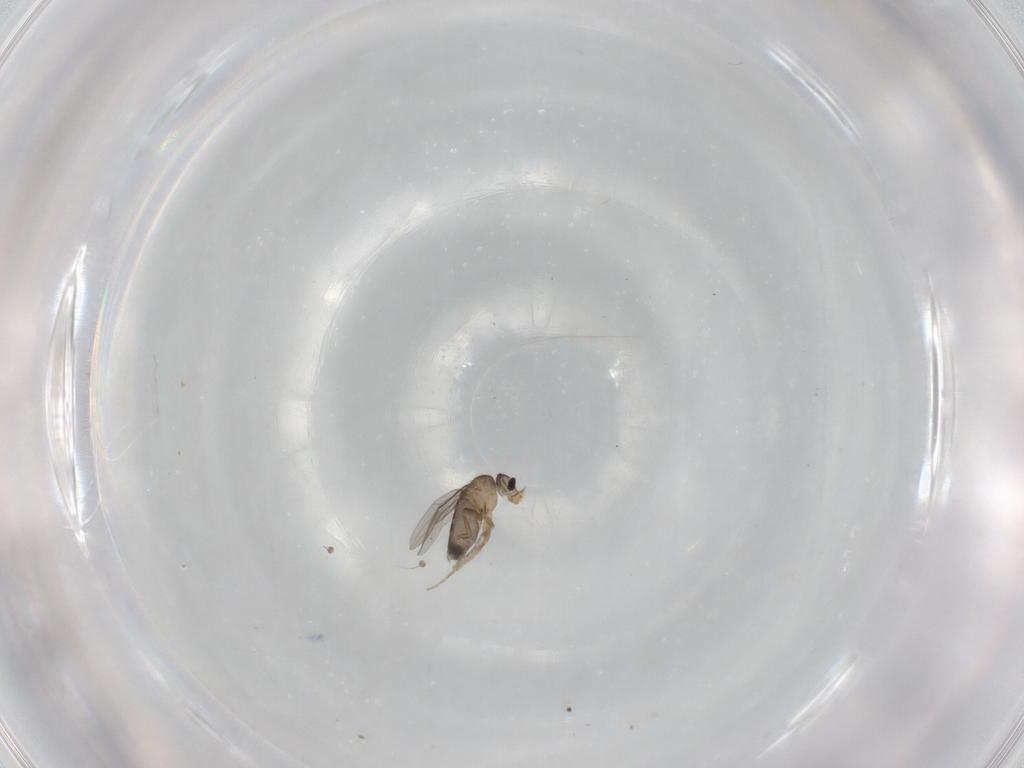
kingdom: Animalia
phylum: Arthropoda
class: Insecta
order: Diptera
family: Phoridae
